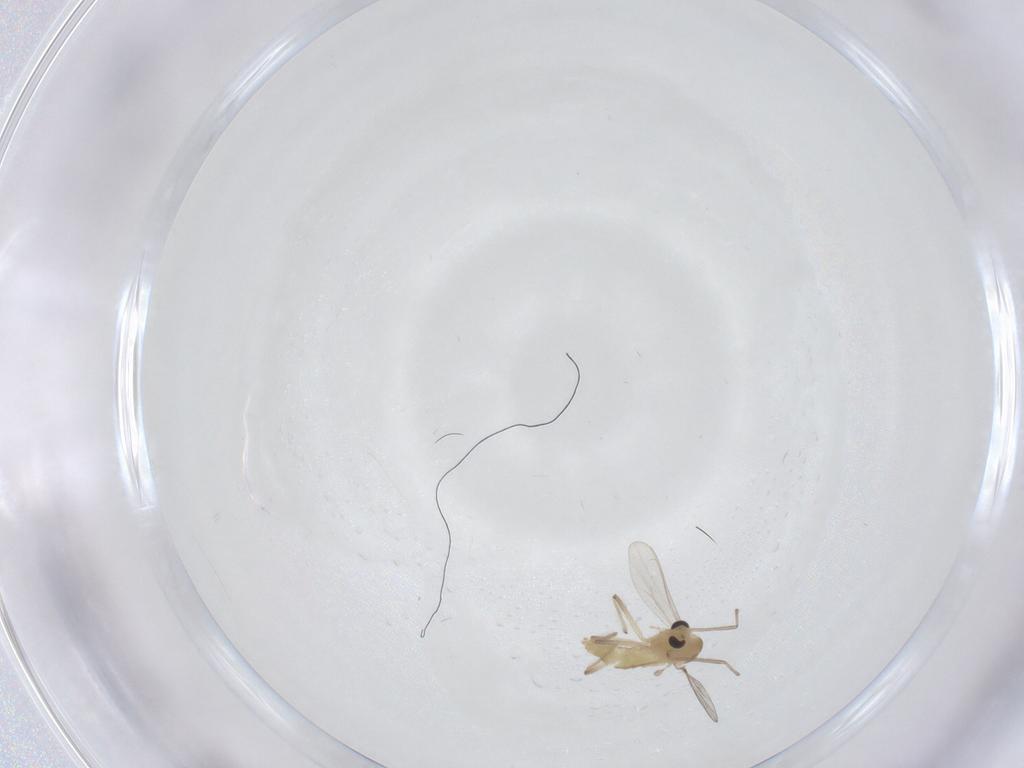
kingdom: Animalia
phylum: Arthropoda
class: Insecta
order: Diptera
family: Chironomidae
